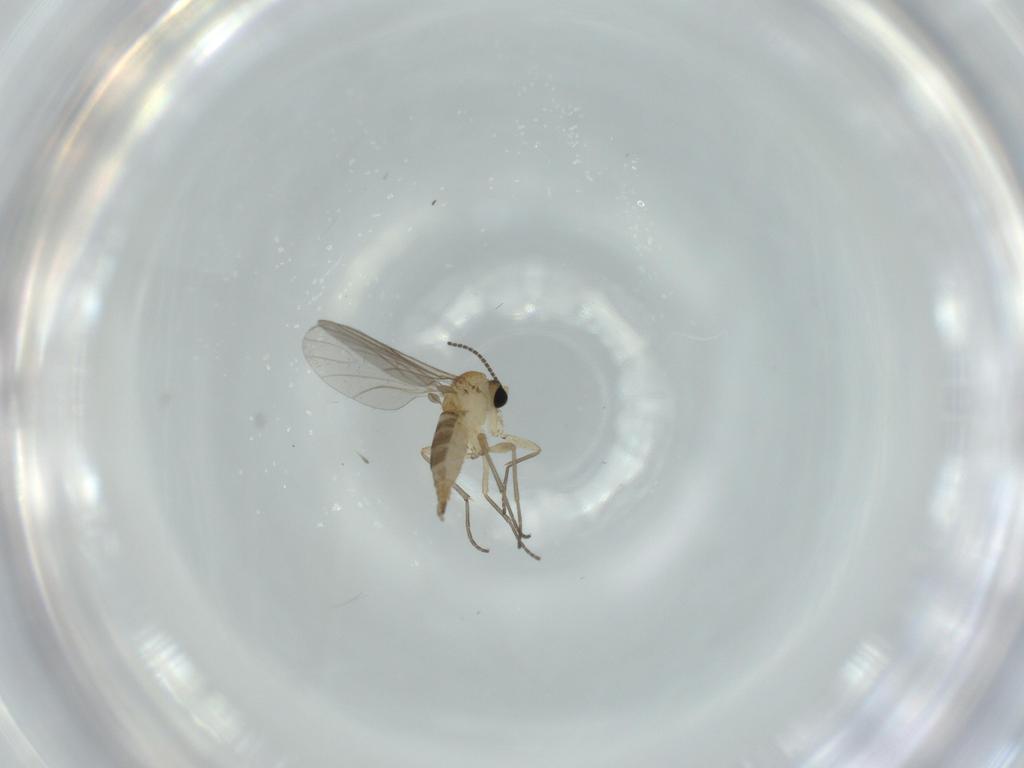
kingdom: Animalia
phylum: Arthropoda
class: Insecta
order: Diptera
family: Sciaridae
